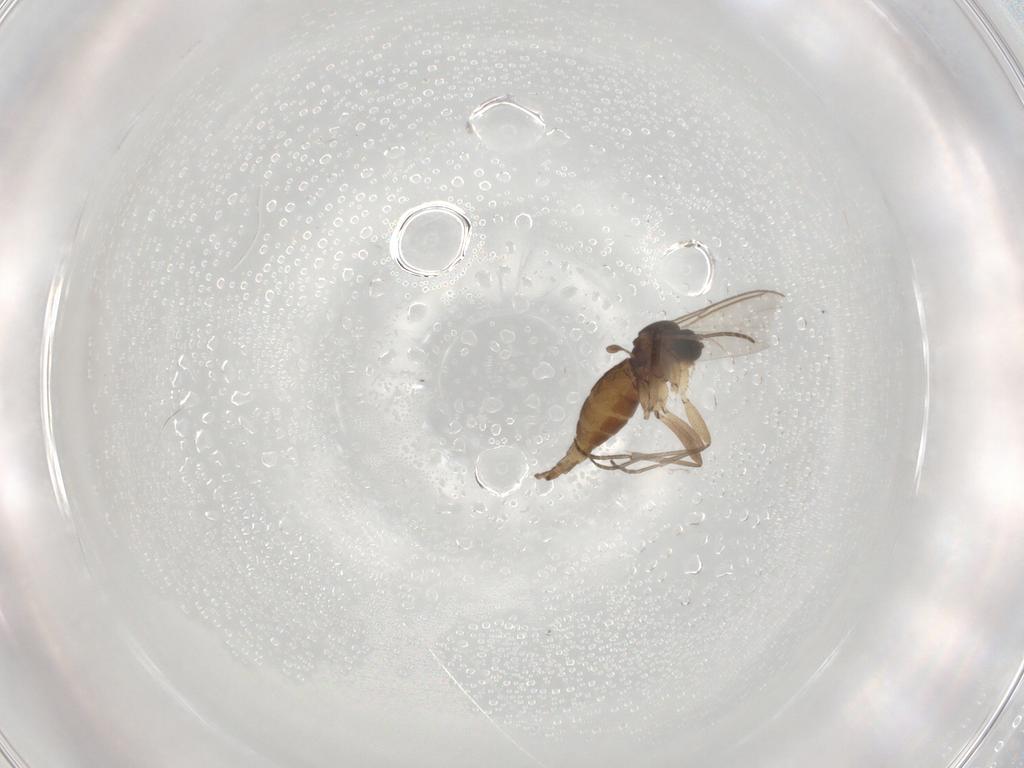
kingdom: Animalia
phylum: Arthropoda
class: Insecta
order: Diptera
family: Sciaridae
